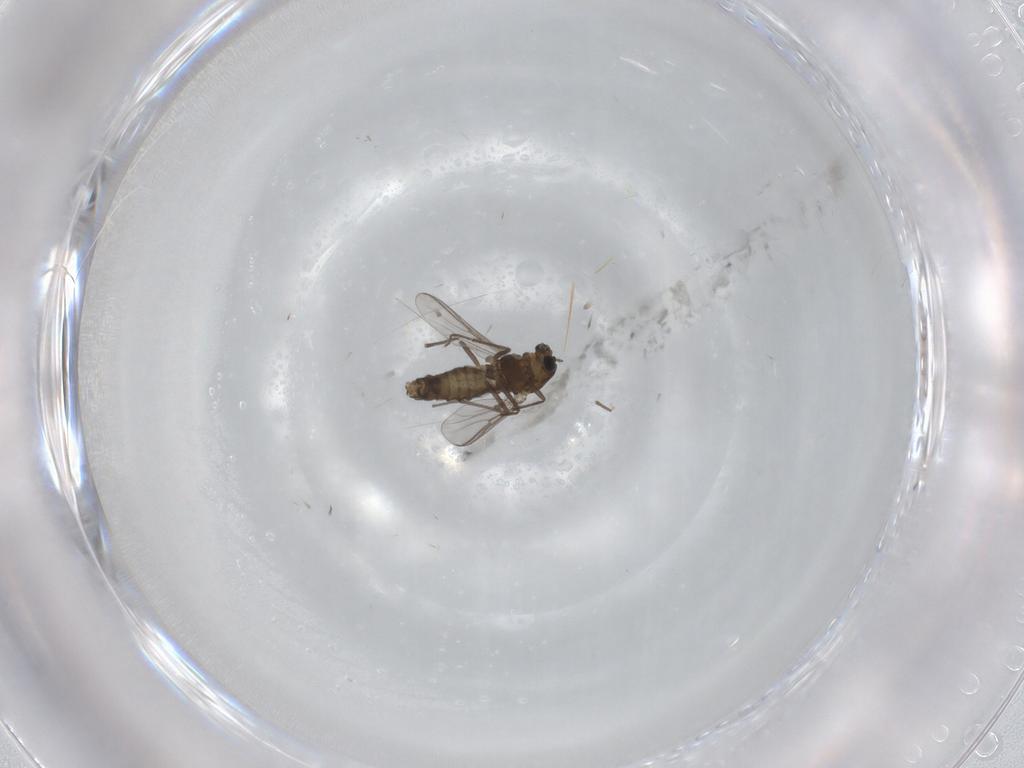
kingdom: Animalia
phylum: Arthropoda
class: Insecta
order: Diptera
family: Chironomidae
